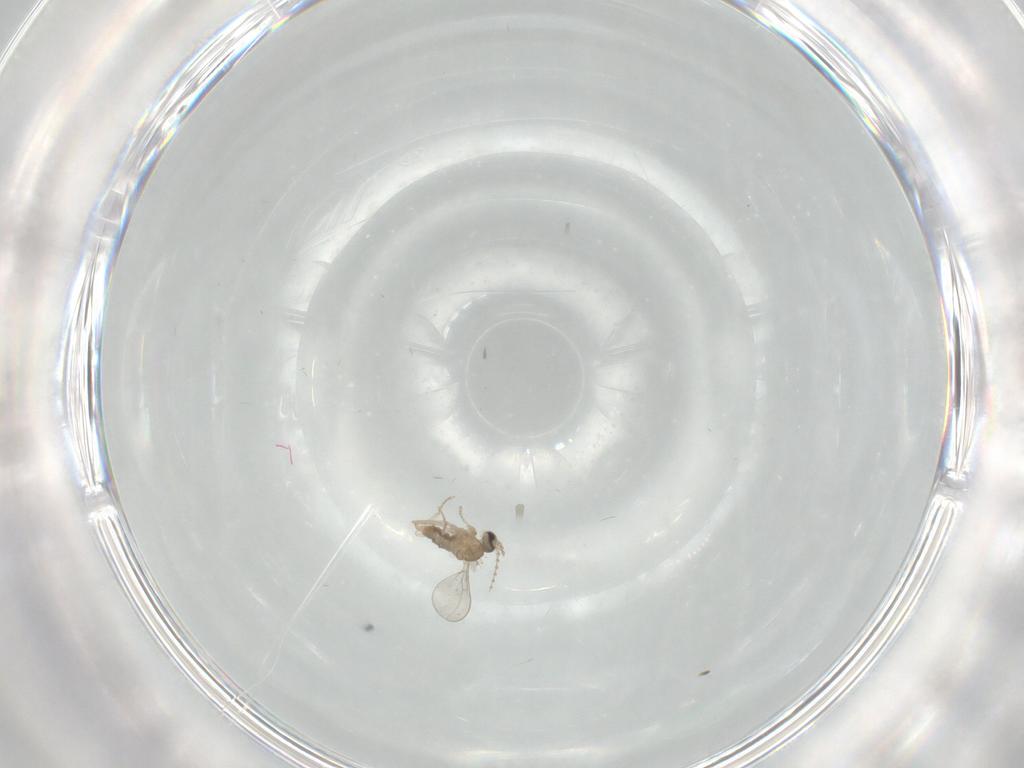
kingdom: Animalia
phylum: Arthropoda
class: Insecta
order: Diptera
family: Cecidomyiidae
